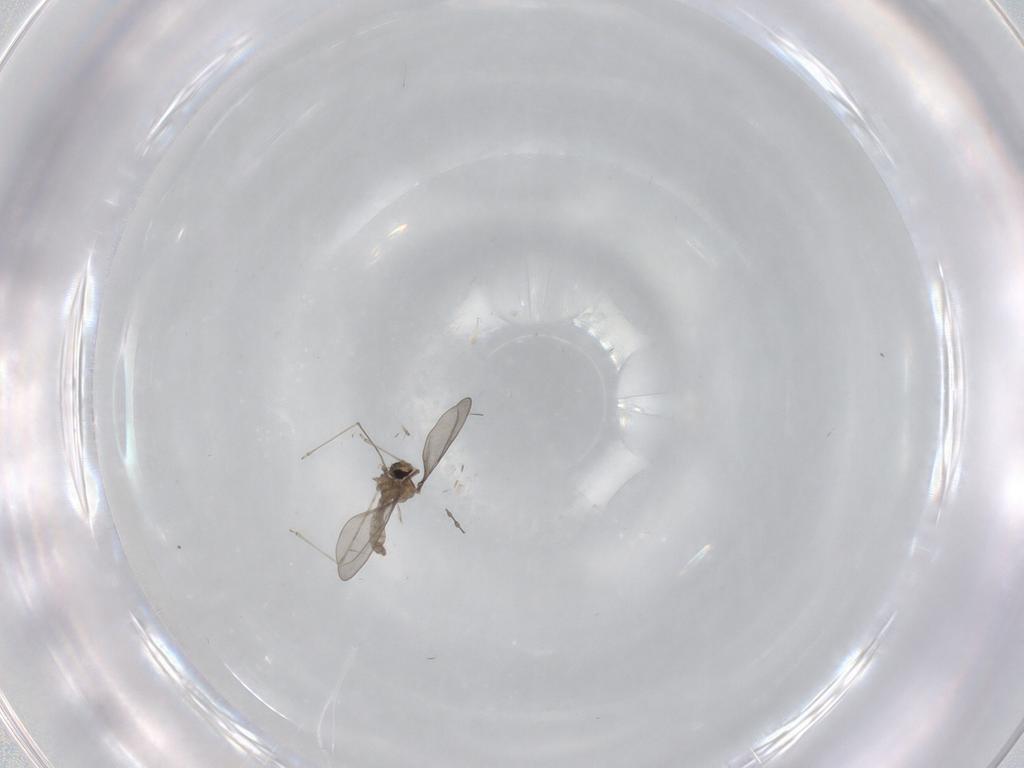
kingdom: Animalia
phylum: Arthropoda
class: Insecta
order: Diptera
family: Cecidomyiidae
